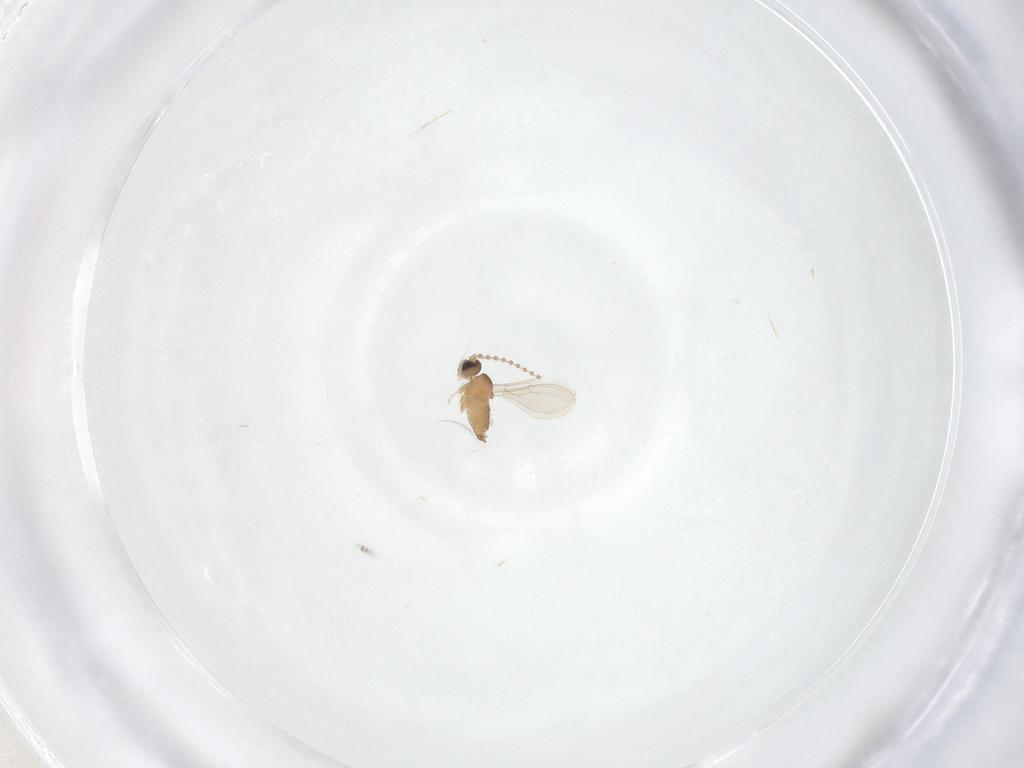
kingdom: Animalia
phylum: Arthropoda
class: Insecta
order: Diptera
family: Cecidomyiidae
